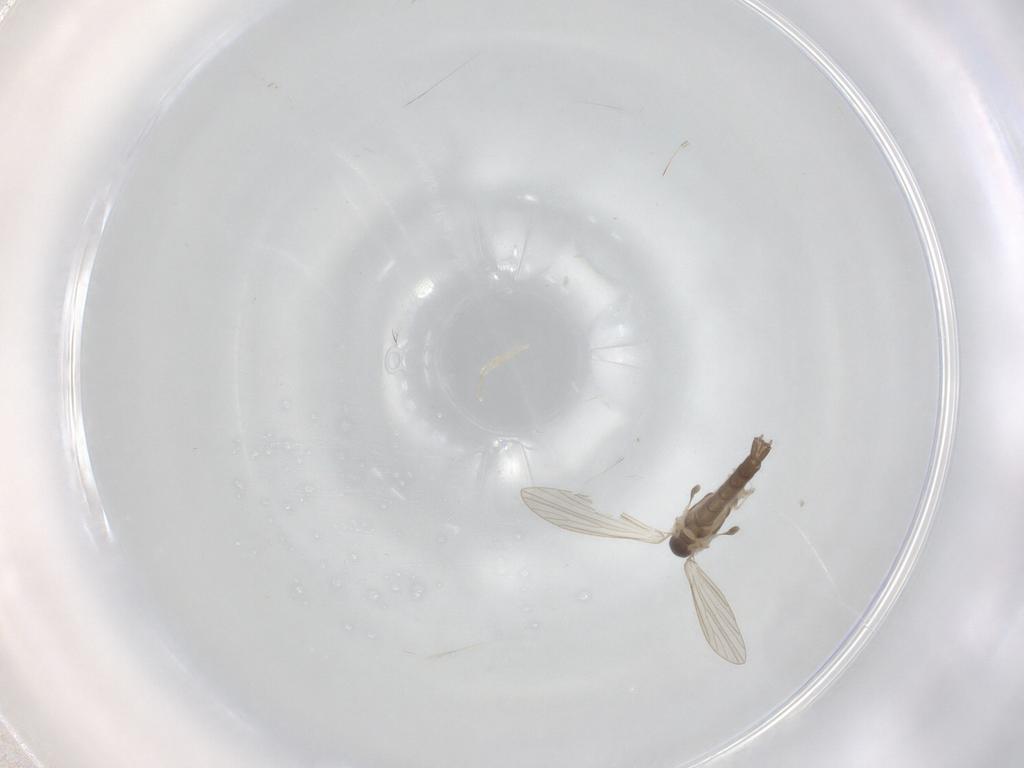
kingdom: Animalia
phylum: Arthropoda
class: Insecta
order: Diptera
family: Psychodidae
